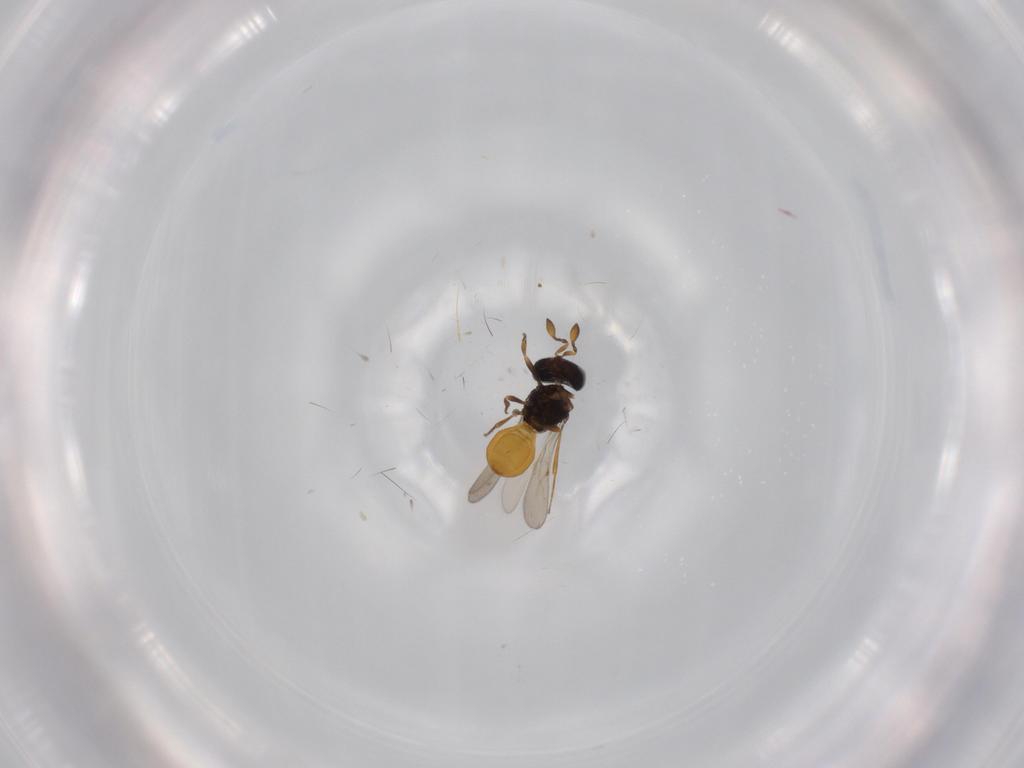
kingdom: Animalia
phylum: Arthropoda
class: Insecta
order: Hymenoptera
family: Scelionidae
